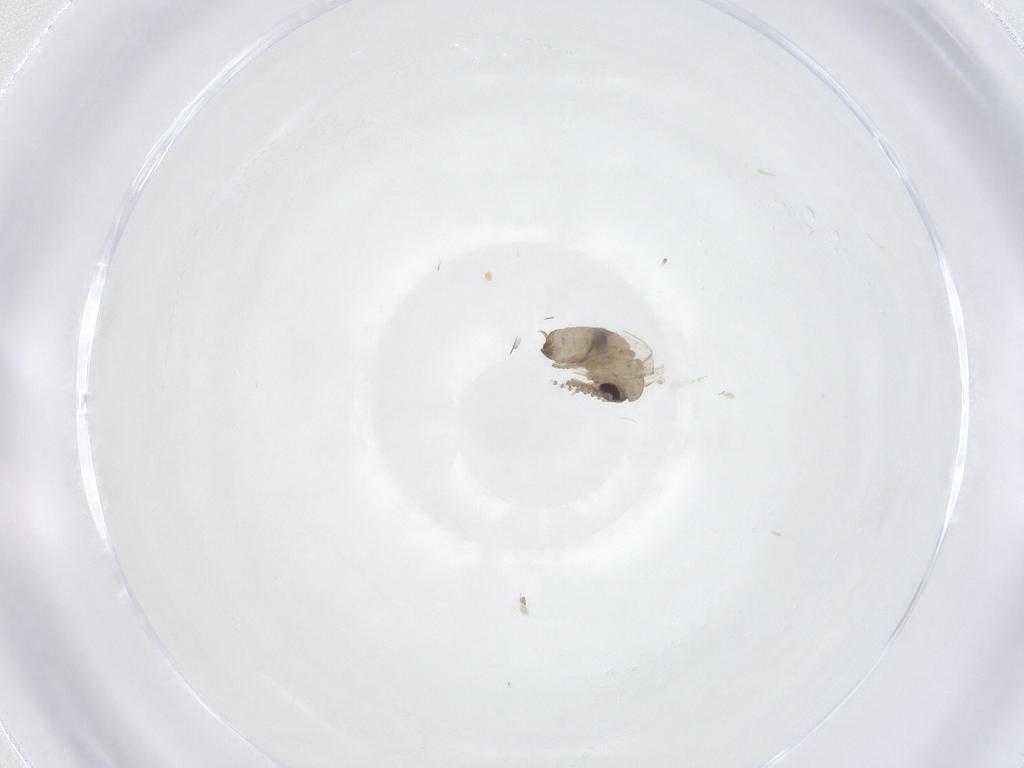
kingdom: Animalia
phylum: Arthropoda
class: Insecta
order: Diptera
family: Psychodidae
